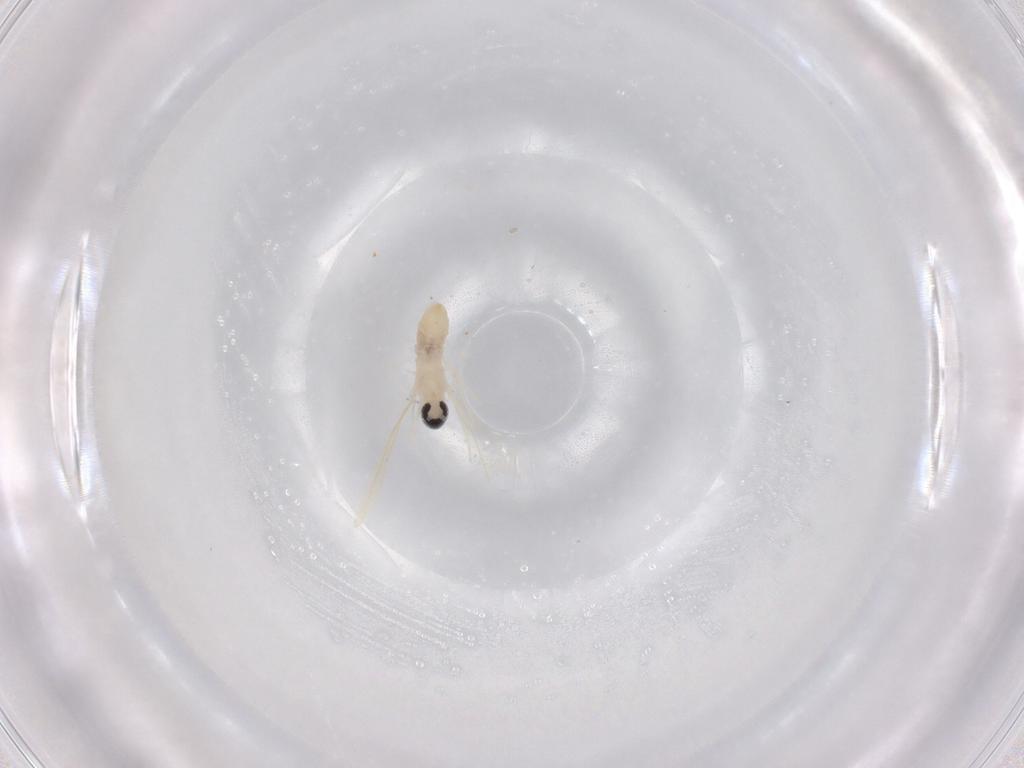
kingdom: Animalia
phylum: Arthropoda
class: Insecta
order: Diptera
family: Cecidomyiidae
